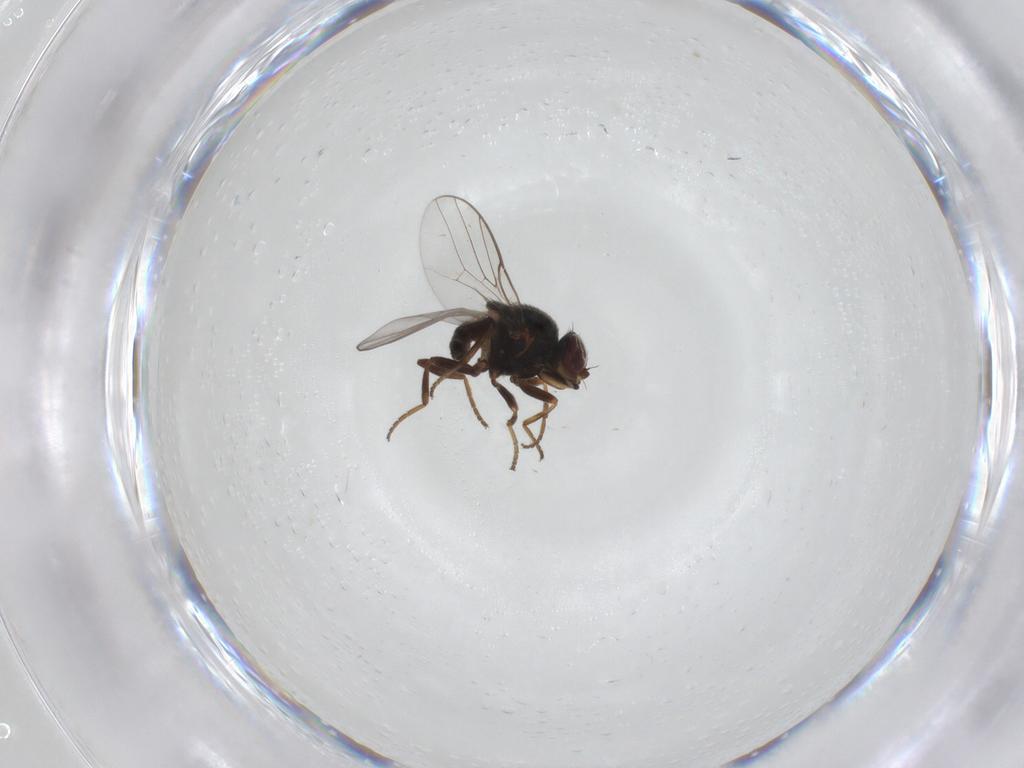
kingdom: Animalia
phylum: Arthropoda
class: Insecta
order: Diptera
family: Chloropidae
